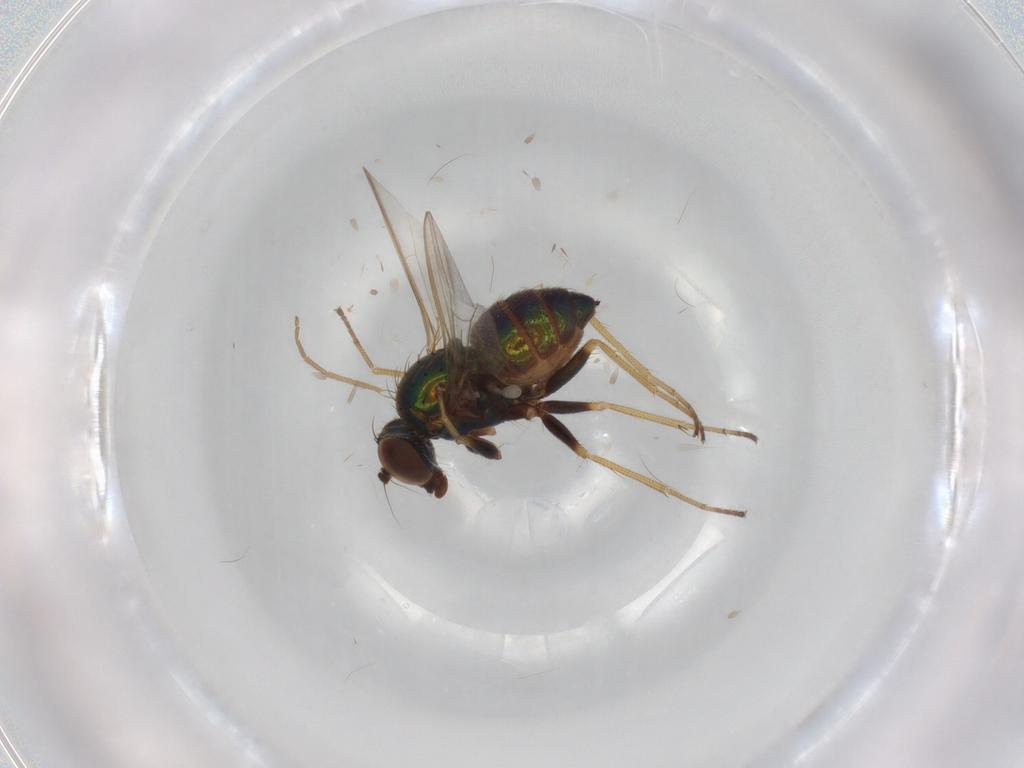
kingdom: Animalia
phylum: Arthropoda
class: Insecta
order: Diptera
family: Dolichopodidae
